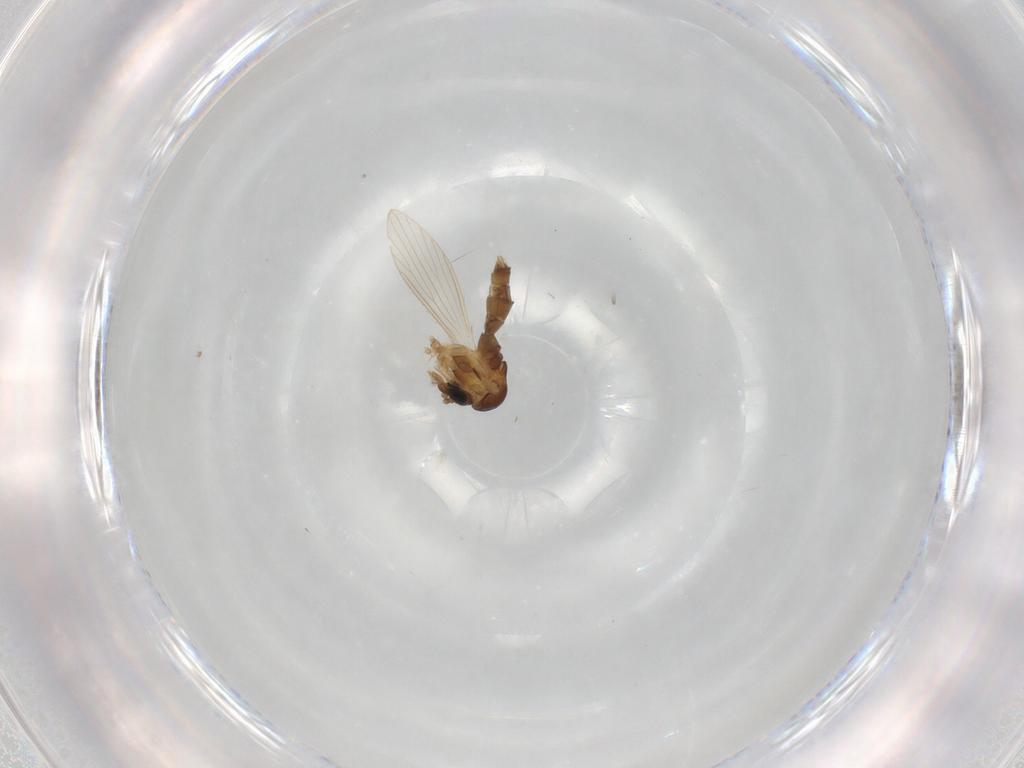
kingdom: Animalia
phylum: Arthropoda
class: Insecta
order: Diptera
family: Psychodidae
